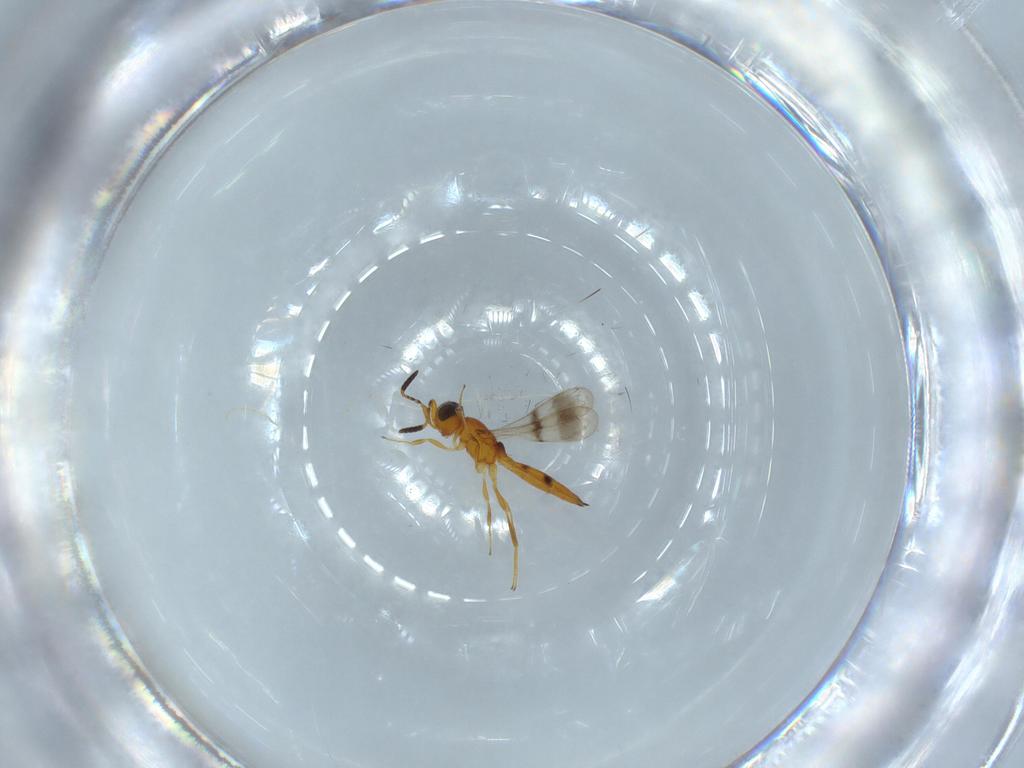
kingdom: Animalia
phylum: Arthropoda
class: Insecta
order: Hymenoptera
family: Scelionidae
